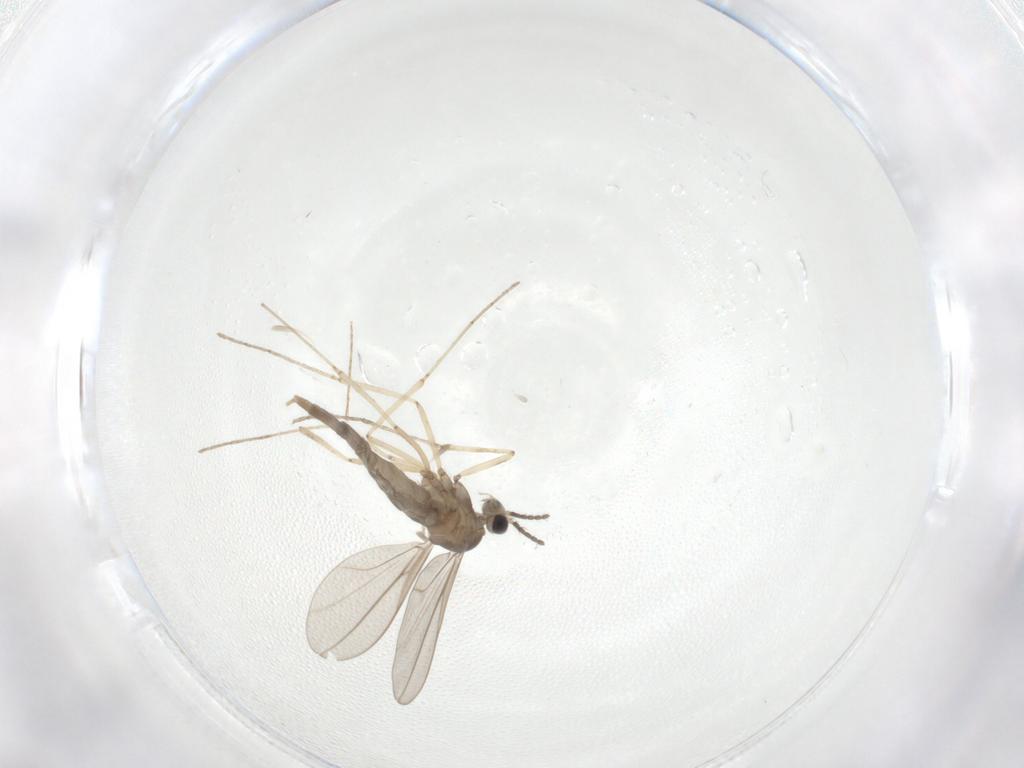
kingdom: Animalia
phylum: Arthropoda
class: Insecta
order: Diptera
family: Cecidomyiidae
